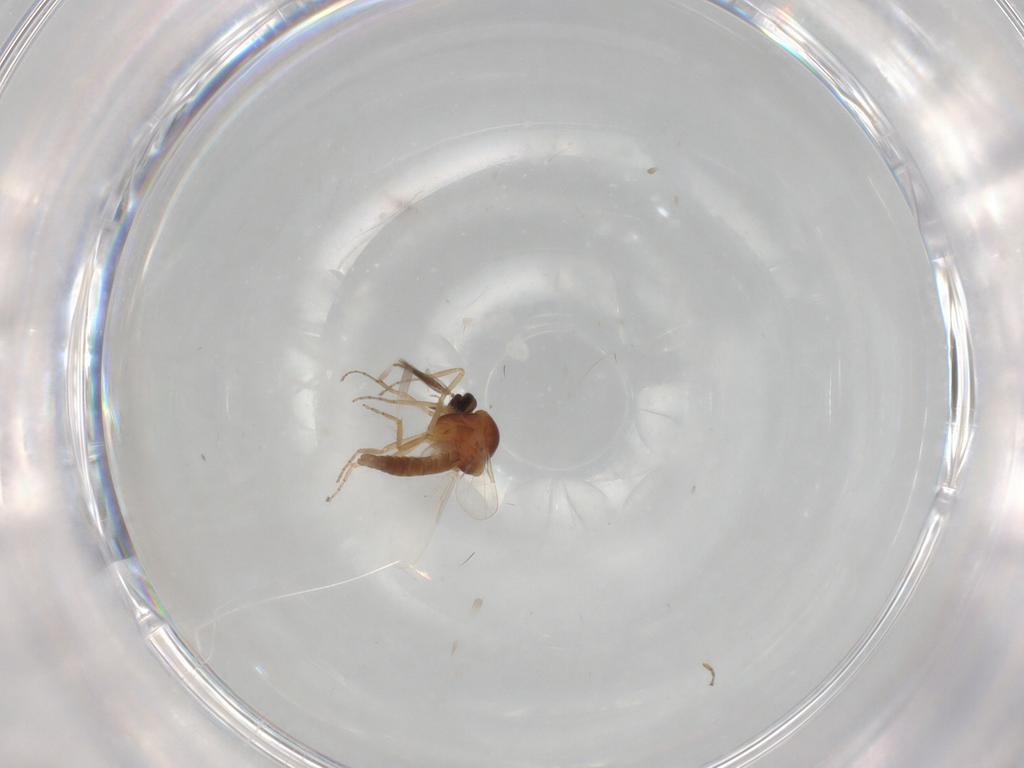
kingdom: Animalia
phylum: Arthropoda
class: Insecta
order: Diptera
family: Ceratopogonidae
